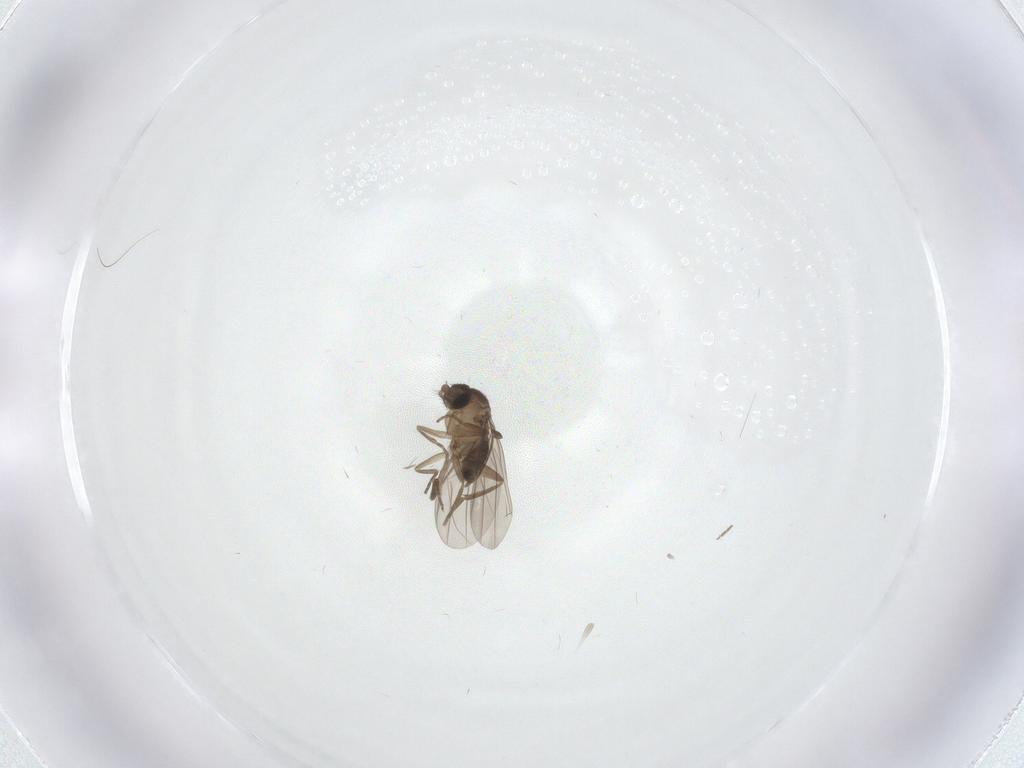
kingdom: Animalia
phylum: Arthropoda
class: Insecta
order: Diptera
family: Phoridae
